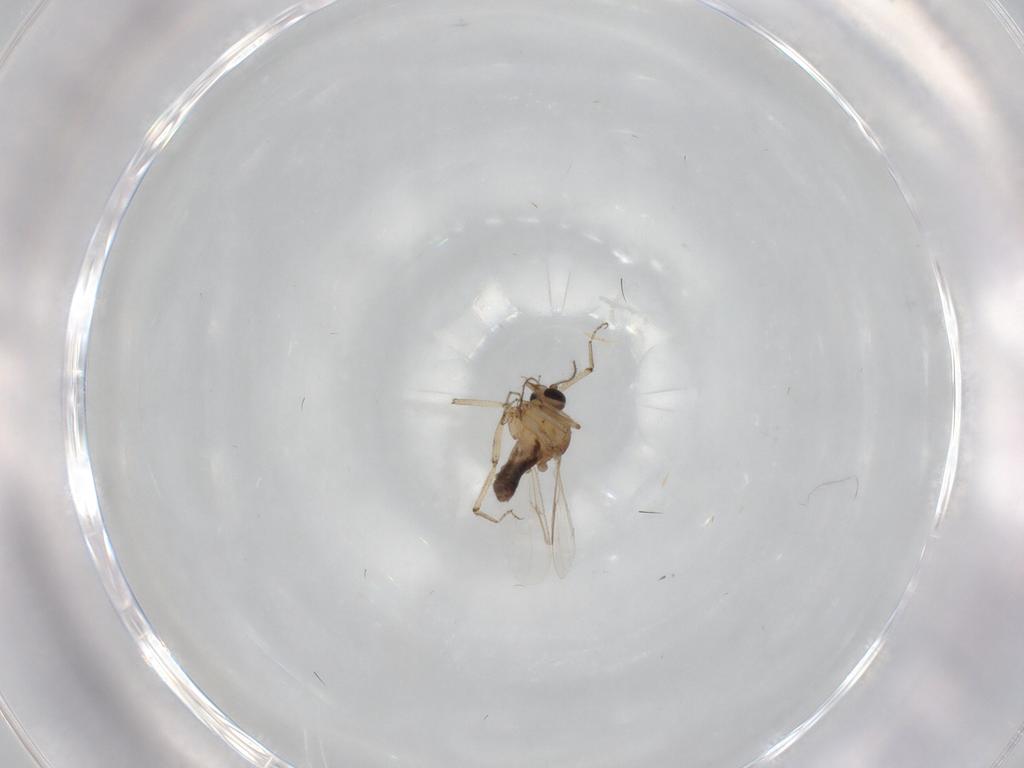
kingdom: Animalia
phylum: Arthropoda
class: Insecta
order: Diptera
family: Ceratopogonidae
